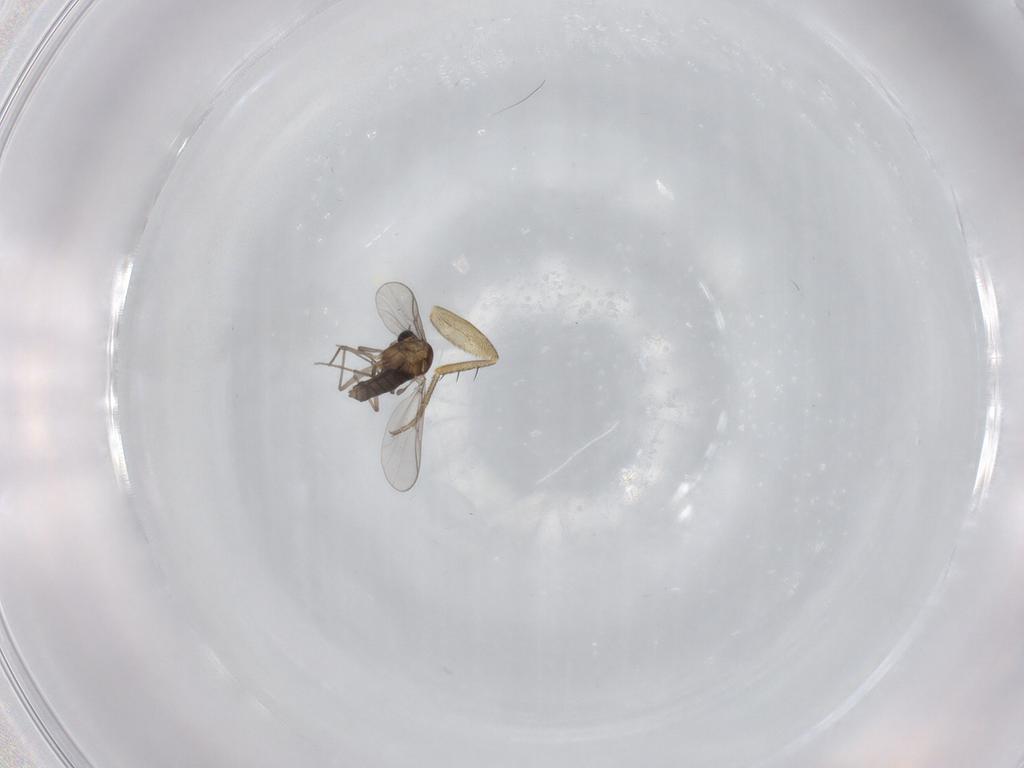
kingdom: Animalia
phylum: Arthropoda
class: Insecta
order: Diptera
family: Chironomidae
